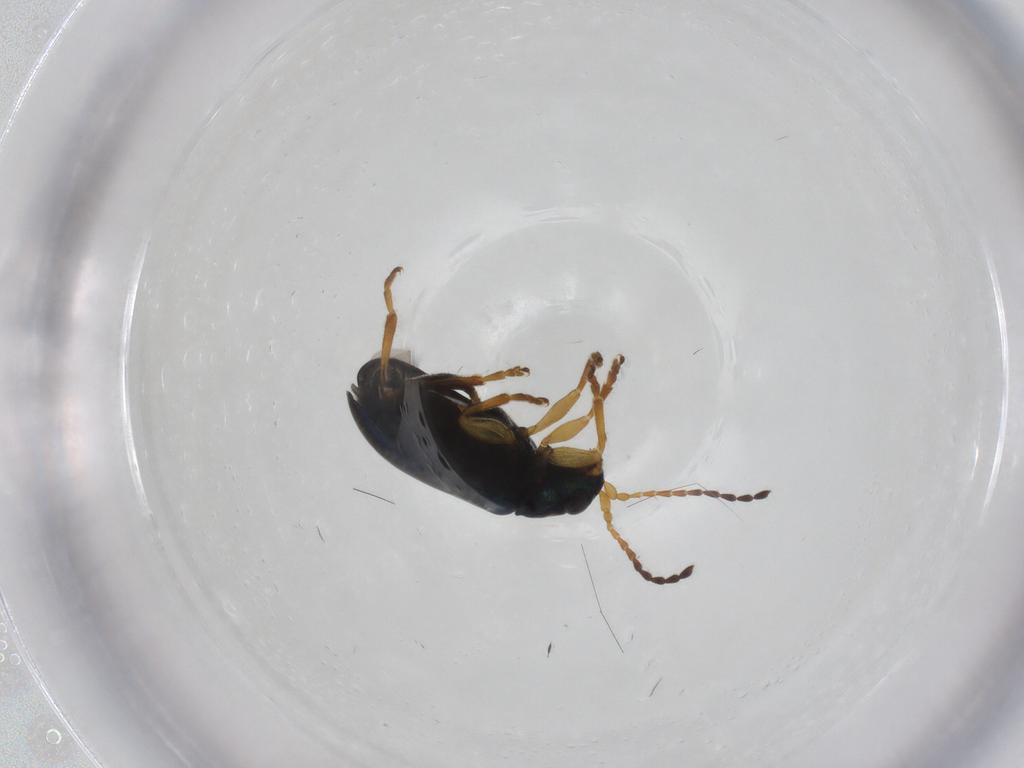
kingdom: Animalia
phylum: Arthropoda
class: Insecta
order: Coleoptera
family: Chrysomelidae
